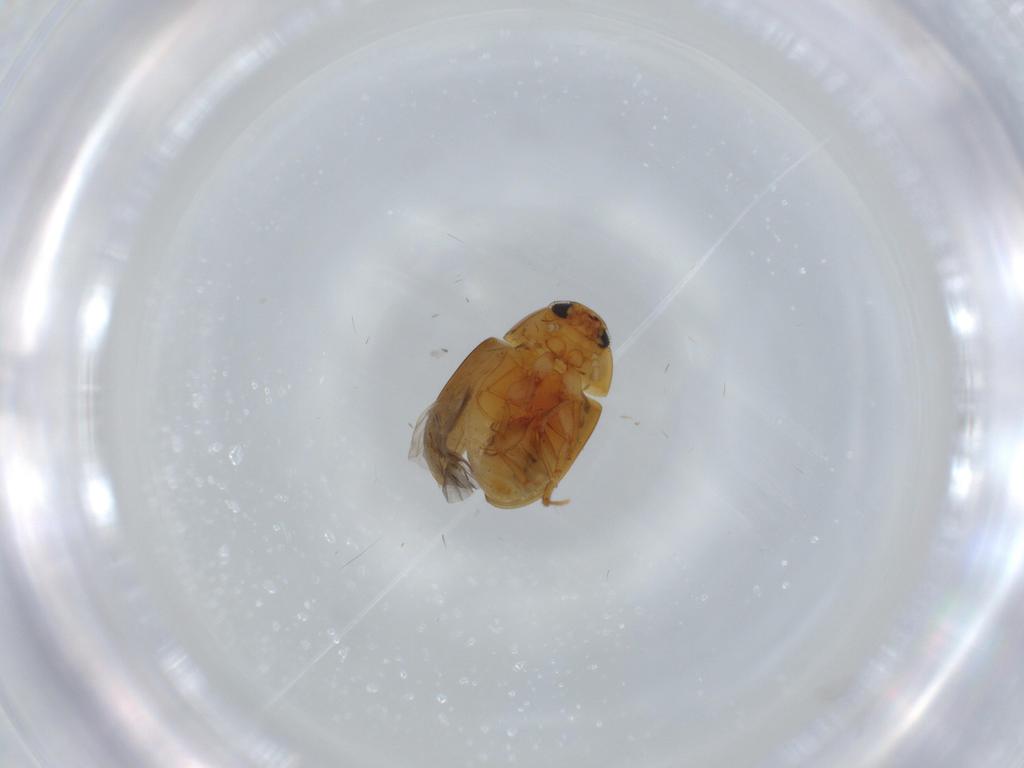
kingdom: Animalia
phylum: Arthropoda
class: Insecta
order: Coleoptera
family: Phalacridae
